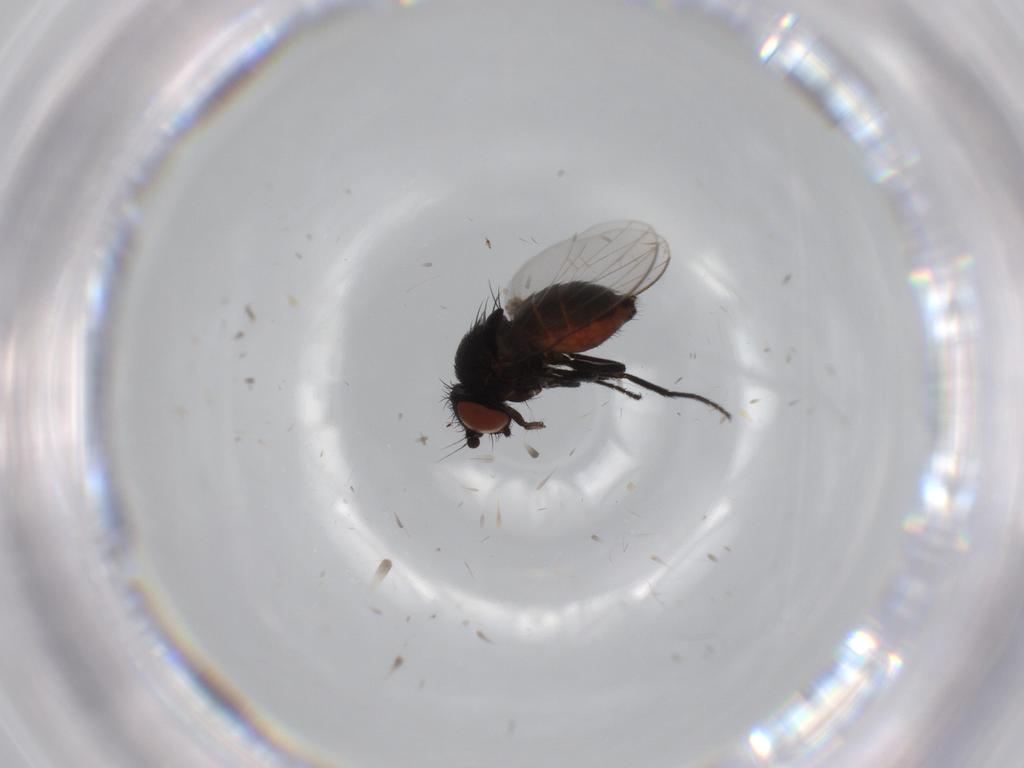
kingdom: Animalia
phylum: Arthropoda
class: Insecta
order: Diptera
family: Milichiidae
